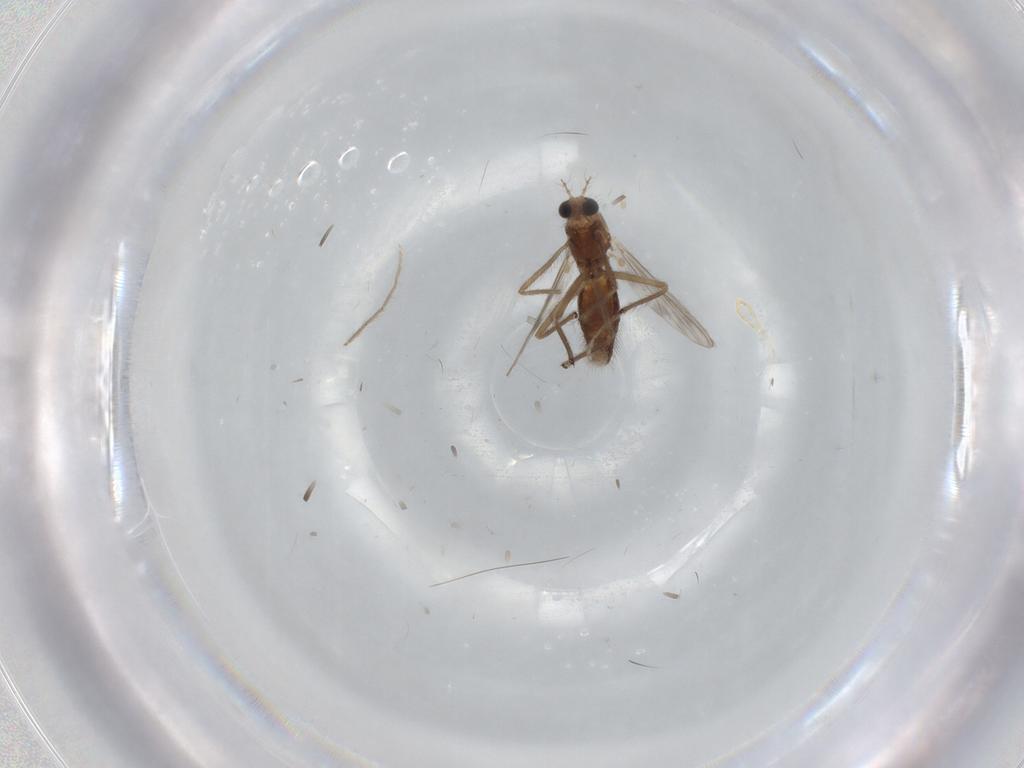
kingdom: Animalia
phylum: Arthropoda
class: Insecta
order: Diptera
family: Chironomidae
